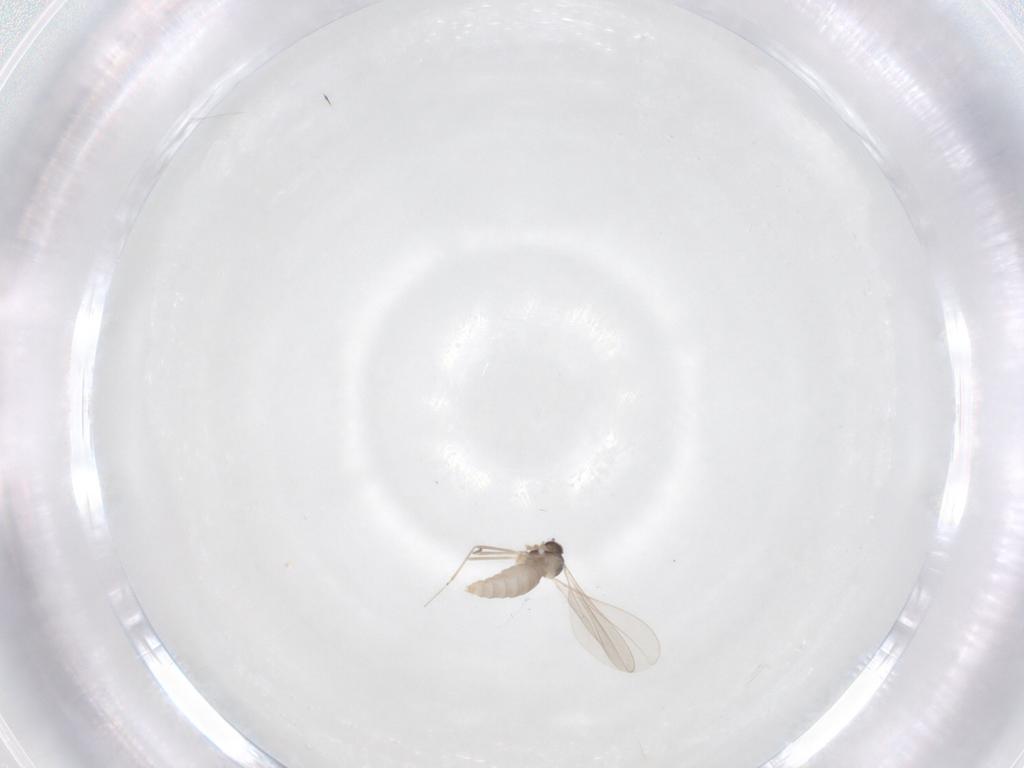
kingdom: Animalia
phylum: Arthropoda
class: Insecta
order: Diptera
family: Cecidomyiidae
